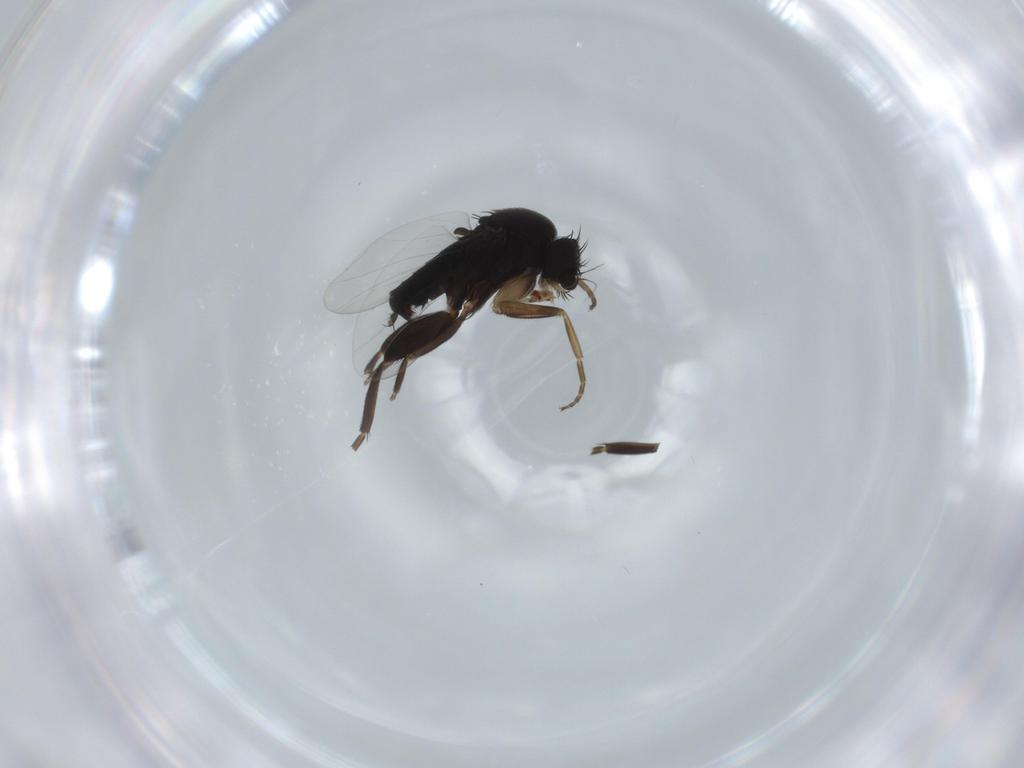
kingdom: Animalia
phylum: Arthropoda
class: Insecta
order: Diptera
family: Phoridae
